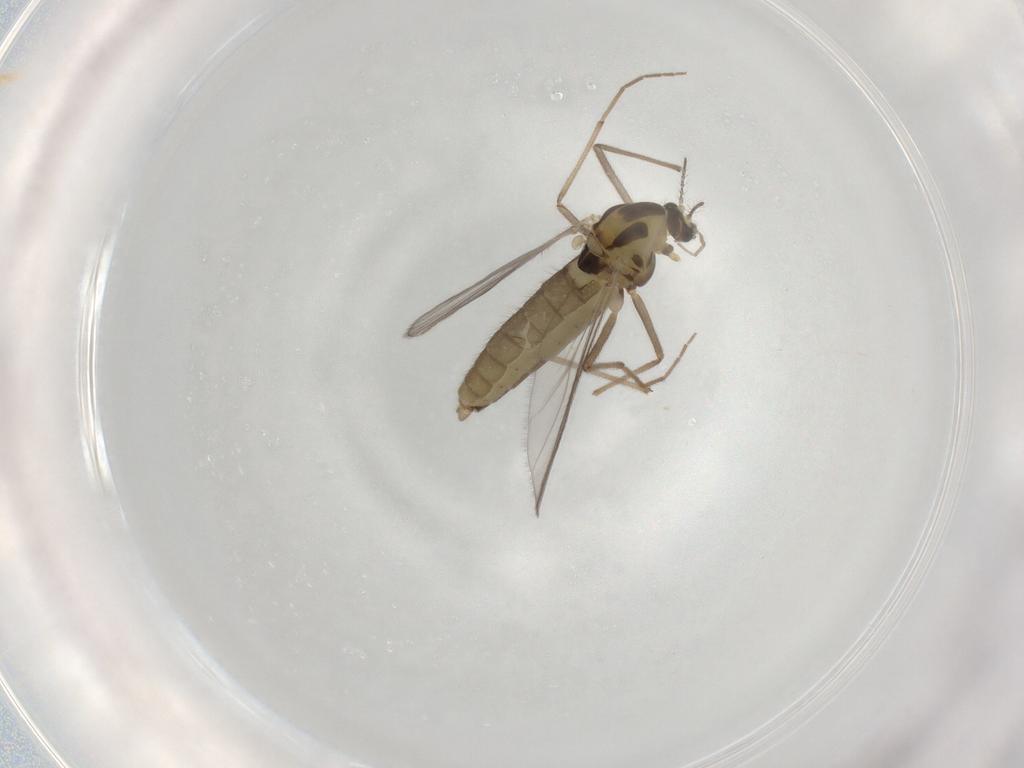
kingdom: Animalia
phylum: Arthropoda
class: Insecta
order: Diptera
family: Chironomidae
